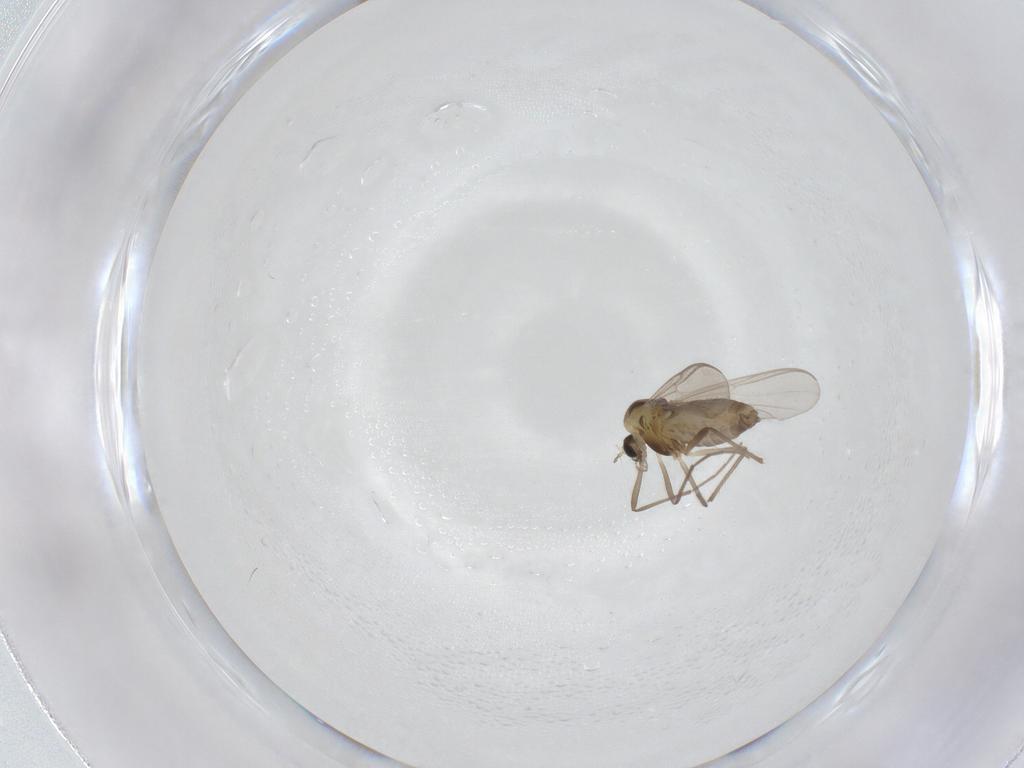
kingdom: Animalia
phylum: Arthropoda
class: Insecta
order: Diptera
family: Chironomidae
